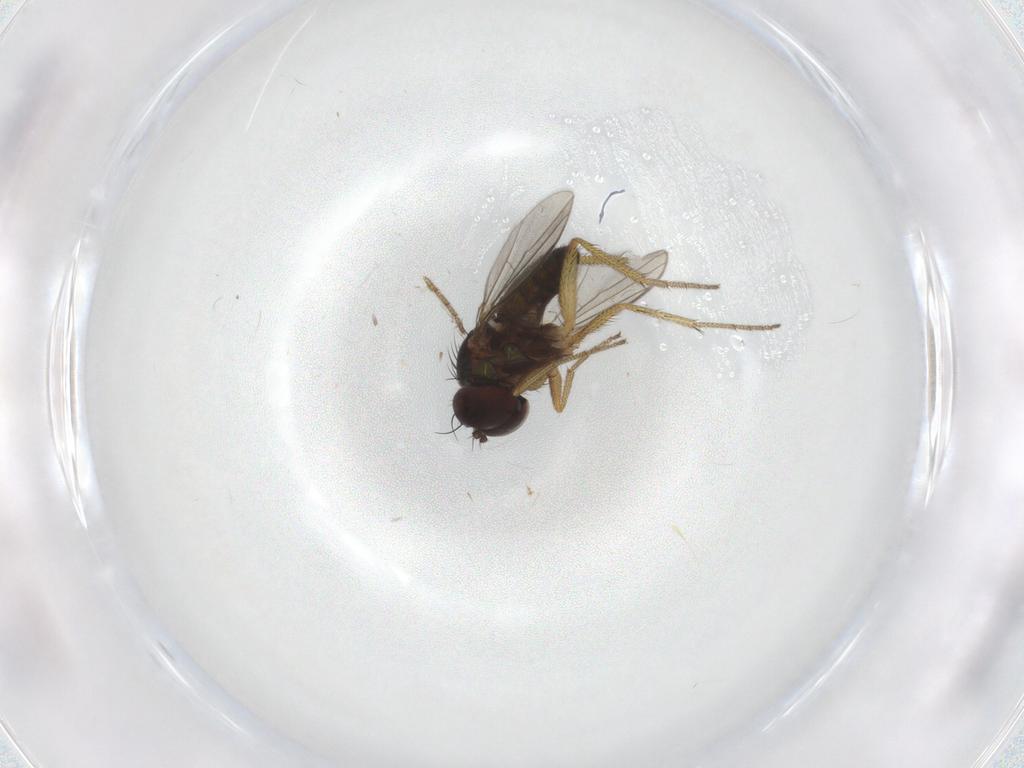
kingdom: Animalia
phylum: Arthropoda
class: Insecta
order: Diptera
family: Dolichopodidae
